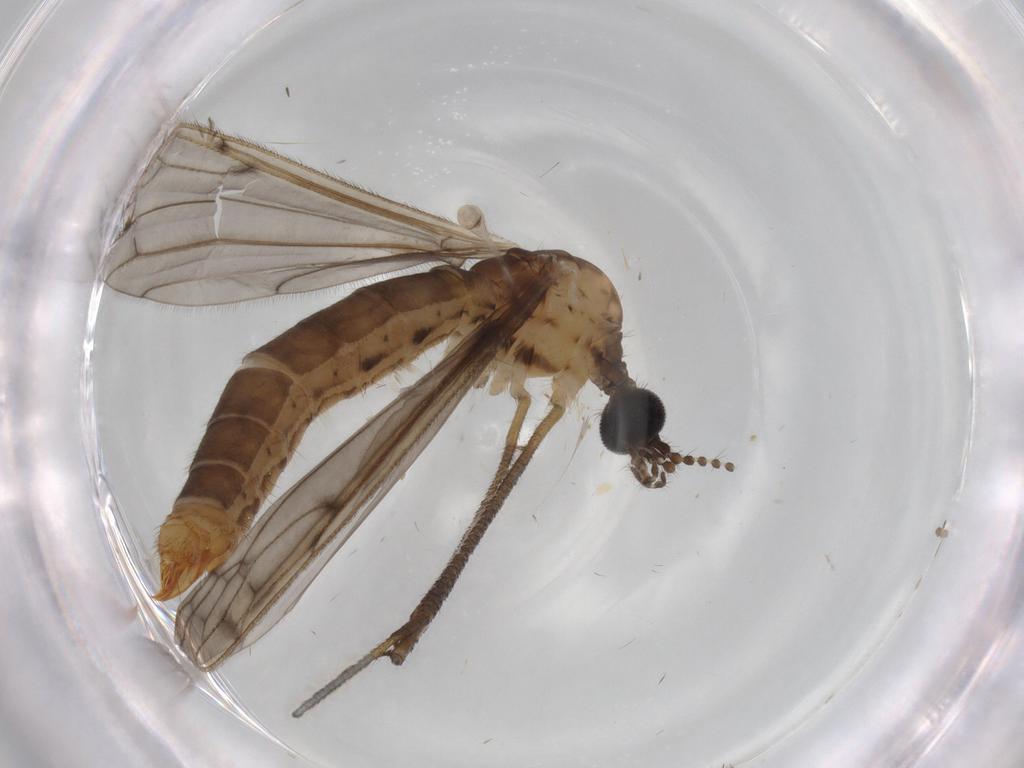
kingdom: Animalia
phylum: Arthropoda
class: Insecta
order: Diptera
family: Limoniidae
